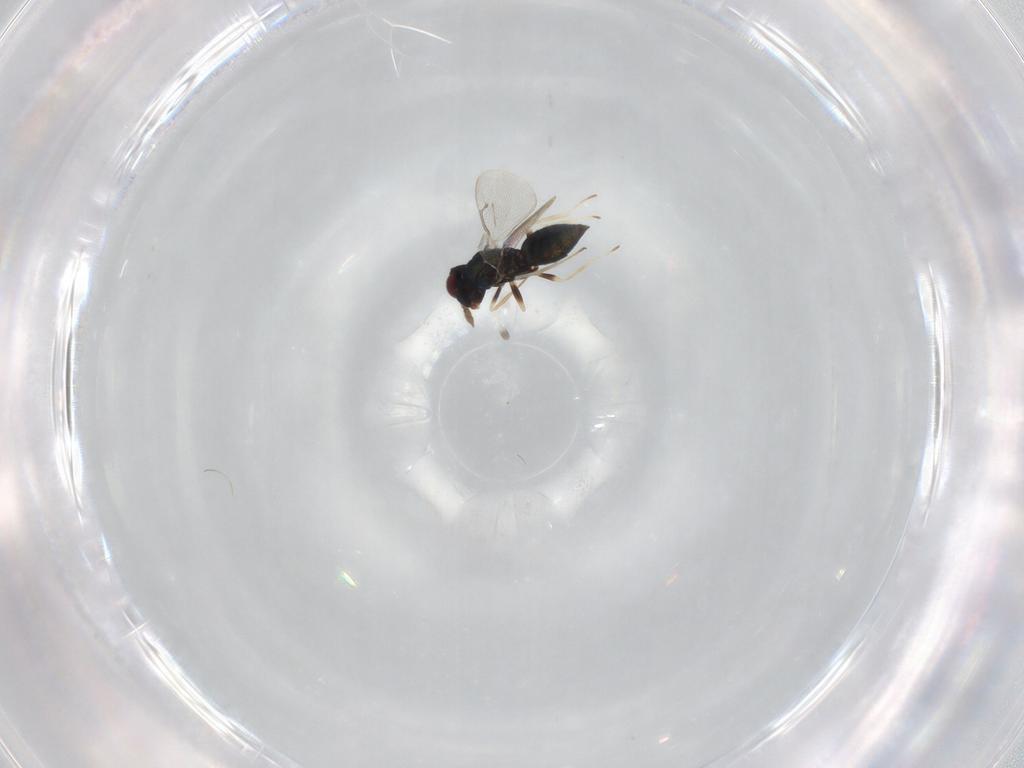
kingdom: Animalia
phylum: Arthropoda
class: Insecta
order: Hymenoptera
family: Eulophidae
